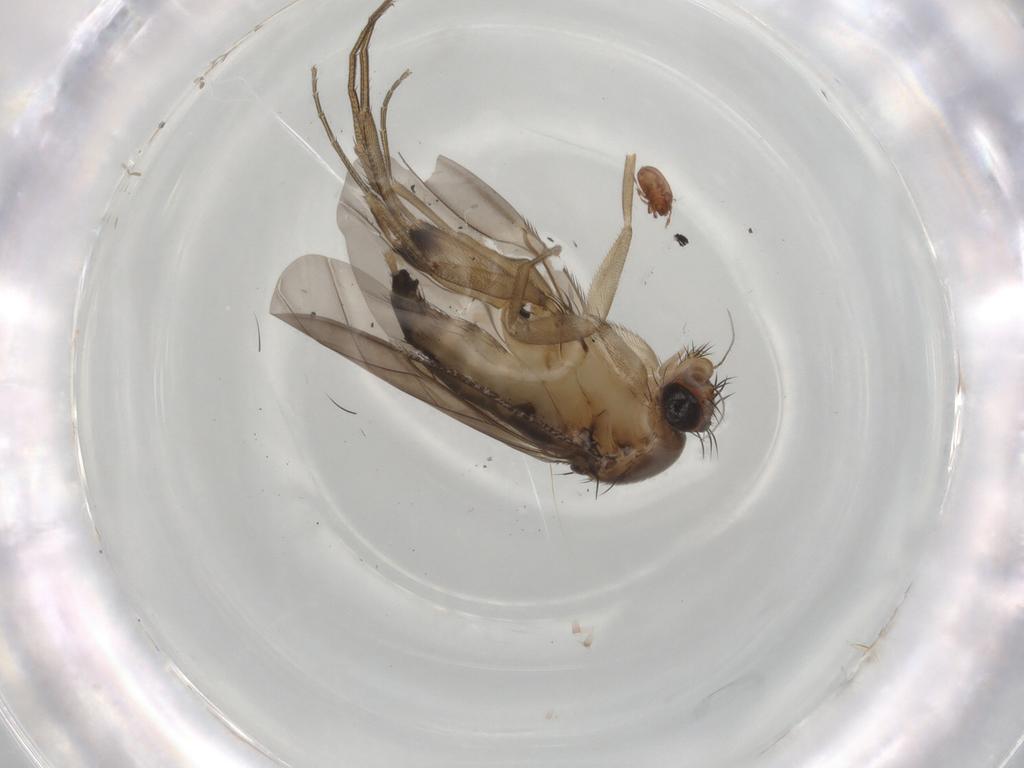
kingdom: Animalia
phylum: Arthropoda
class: Insecta
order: Diptera
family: Phoridae
